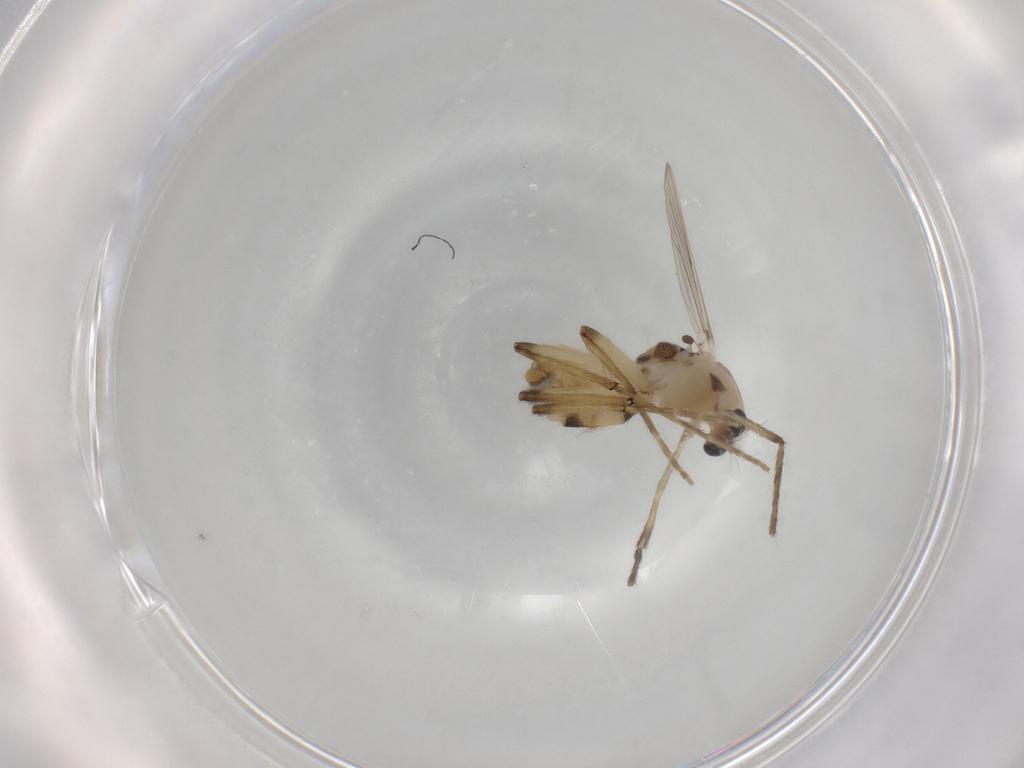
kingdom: Animalia
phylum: Arthropoda
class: Insecta
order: Diptera
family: Chironomidae
